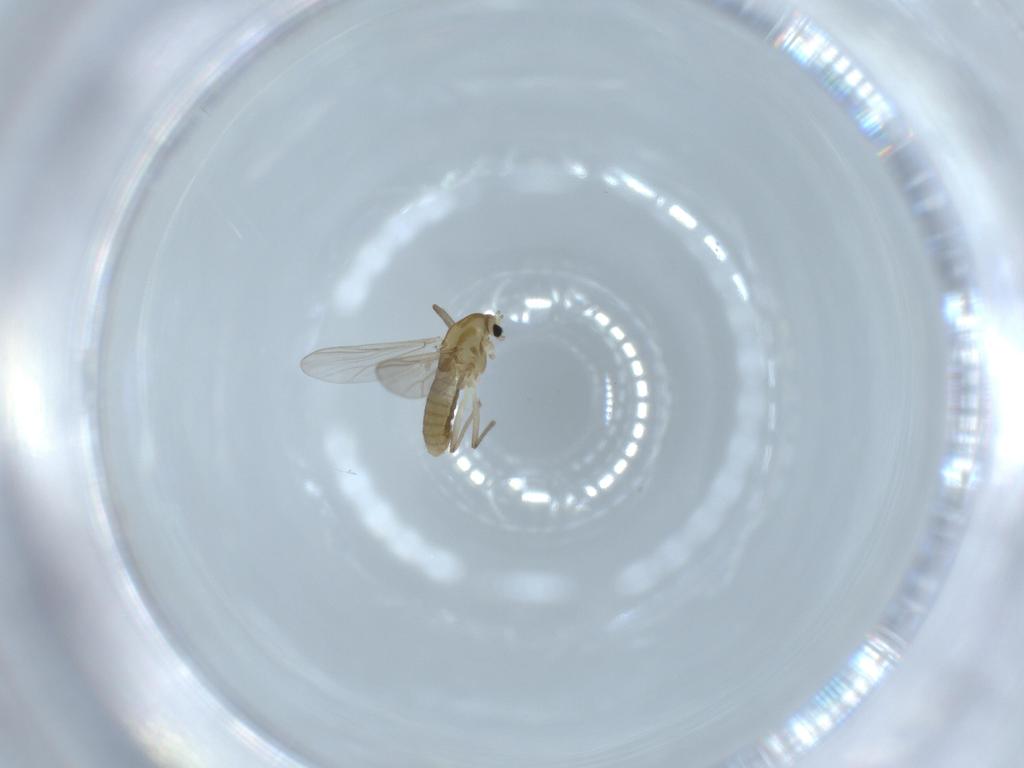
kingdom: Animalia
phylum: Arthropoda
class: Insecta
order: Diptera
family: Chironomidae
